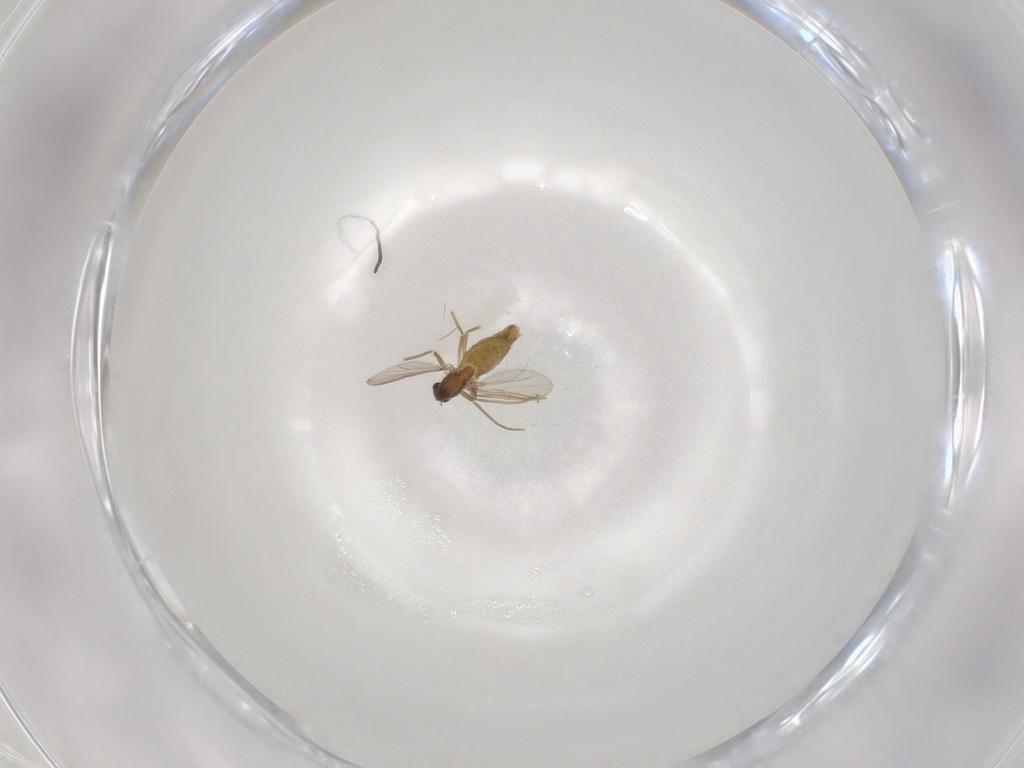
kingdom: Animalia
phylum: Arthropoda
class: Insecta
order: Diptera
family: Chironomidae
